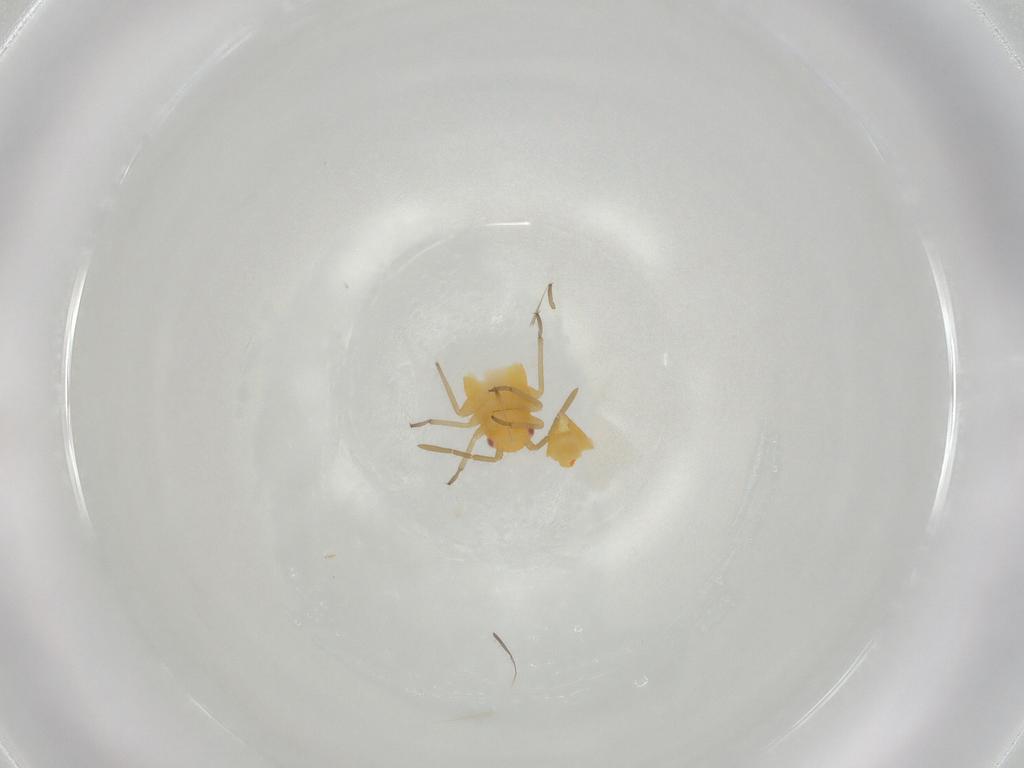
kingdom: Animalia
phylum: Arthropoda
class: Insecta
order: Hemiptera
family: Miridae
